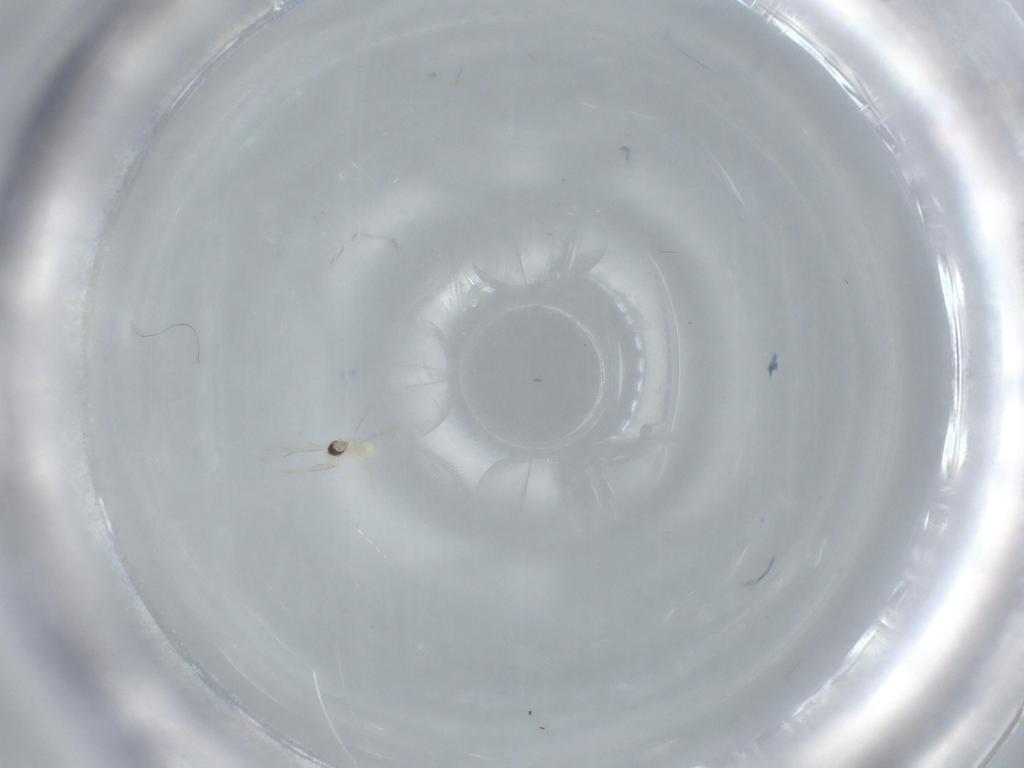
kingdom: Animalia
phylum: Arthropoda
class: Insecta
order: Diptera
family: Cecidomyiidae
